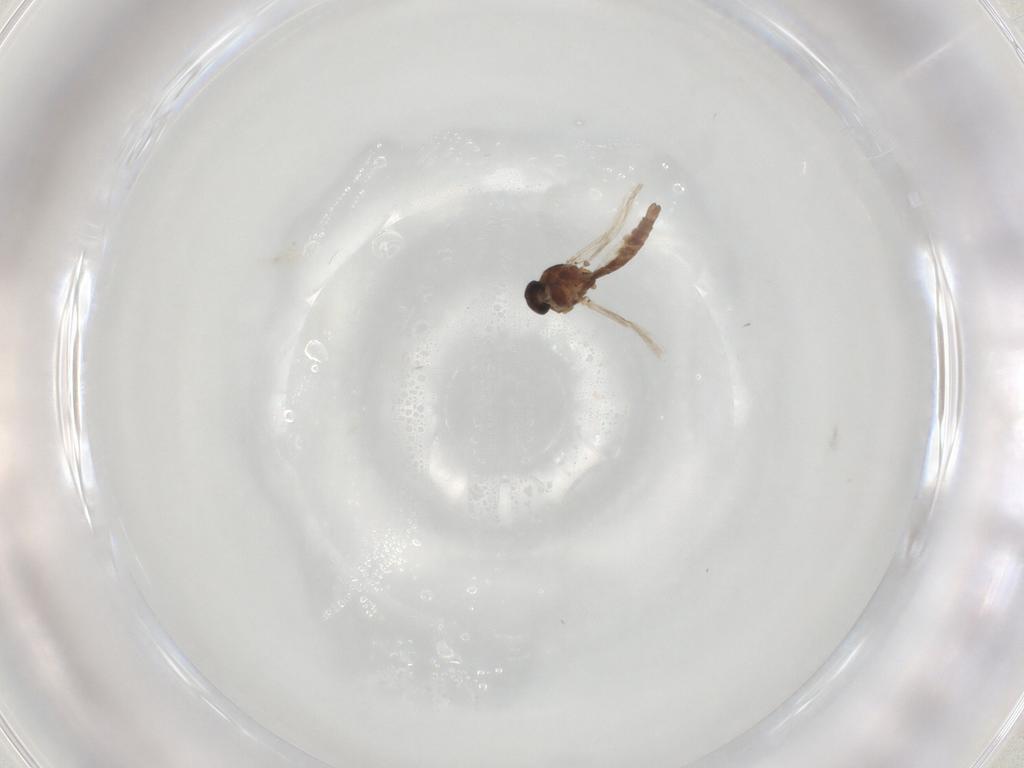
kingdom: Animalia
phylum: Arthropoda
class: Insecta
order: Diptera
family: Ceratopogonidae
